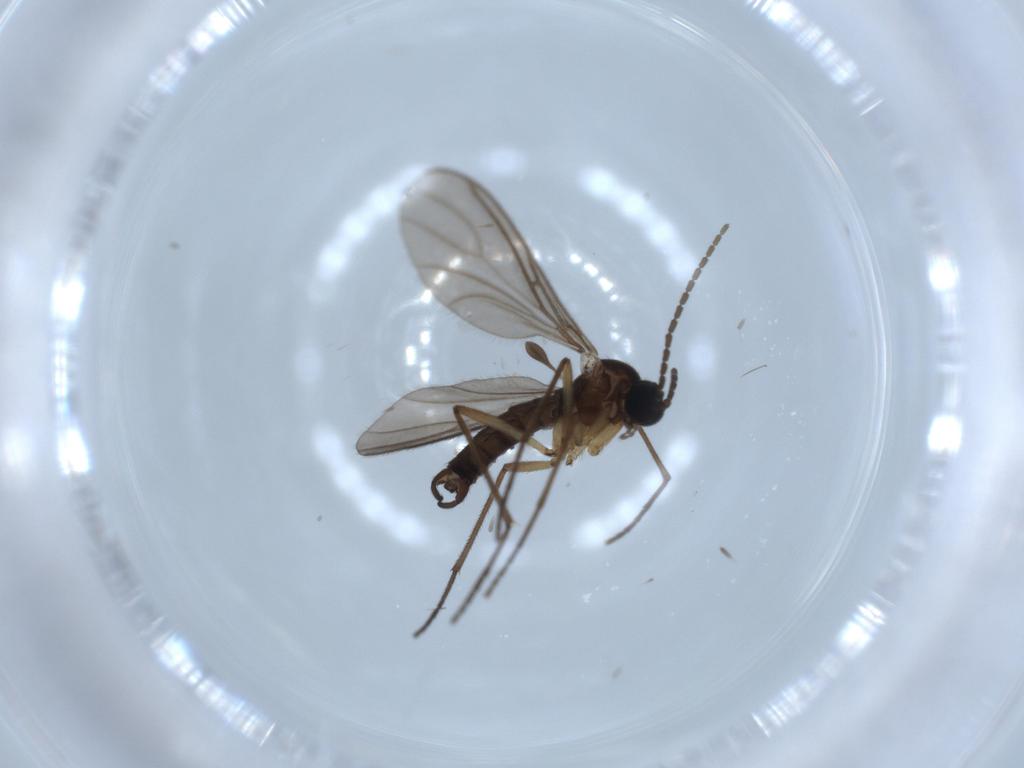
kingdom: Animalia
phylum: Arthropoda
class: Insecta
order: Diptera
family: Sciaridae
